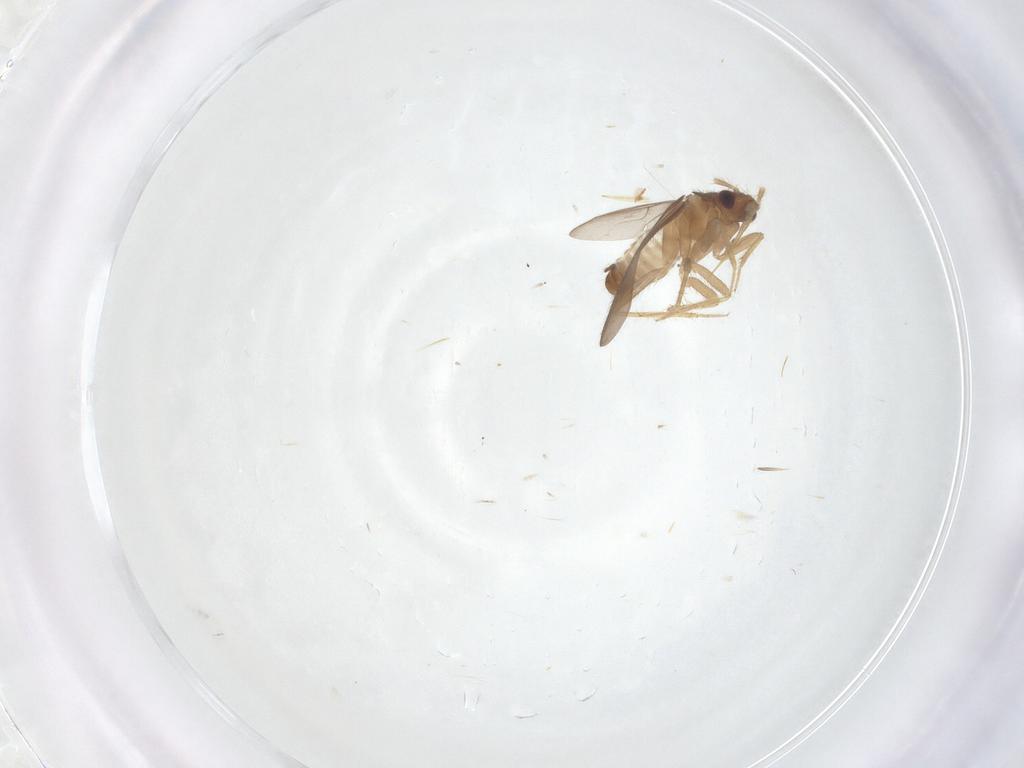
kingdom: Animalia
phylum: Arthropoda
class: Insecta
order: Hemiptera
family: Ceratocombidae
